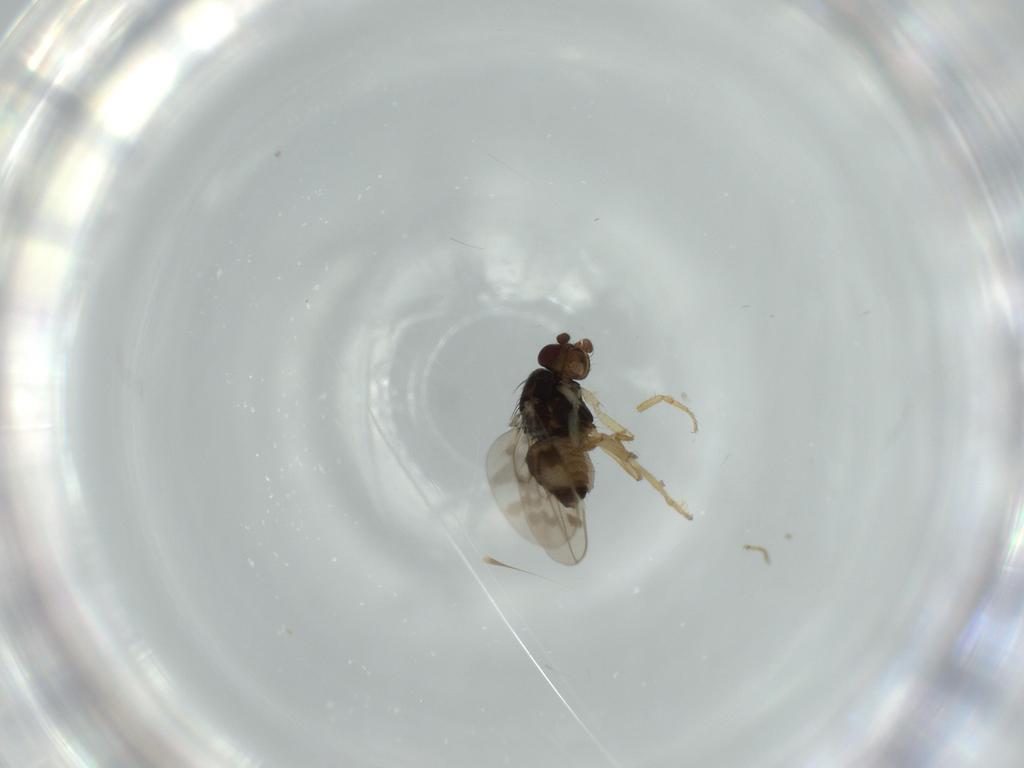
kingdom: Animalia
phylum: Arthropoda
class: Insecta
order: Diptera
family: Sphaeroceridae
